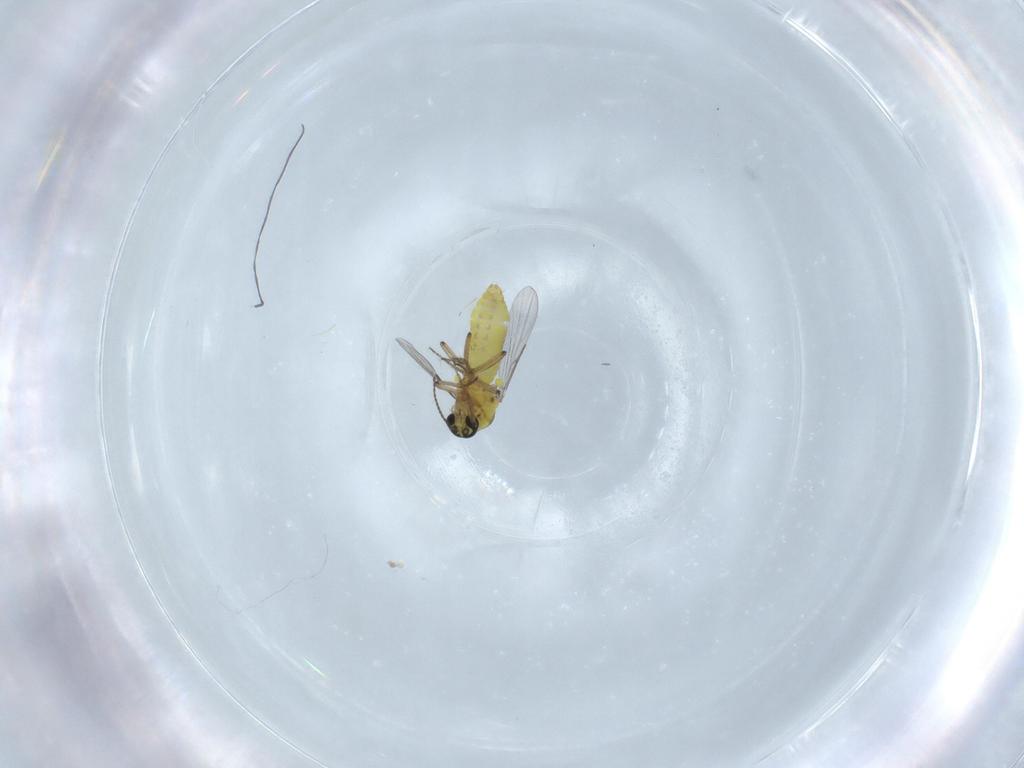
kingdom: Animalia
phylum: Arthropoda
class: Insecta
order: Diptera
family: Ceratopogonidae
